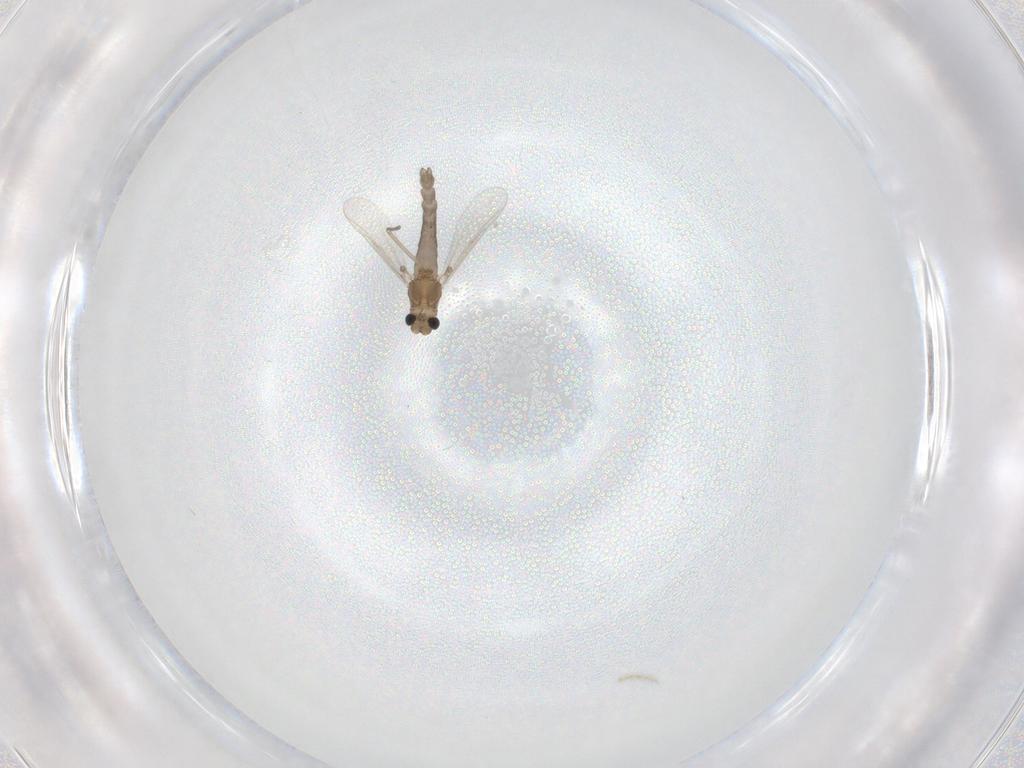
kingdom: Animalia
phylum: Arthropoda
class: Insecta
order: Diptera
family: Chironomidae
